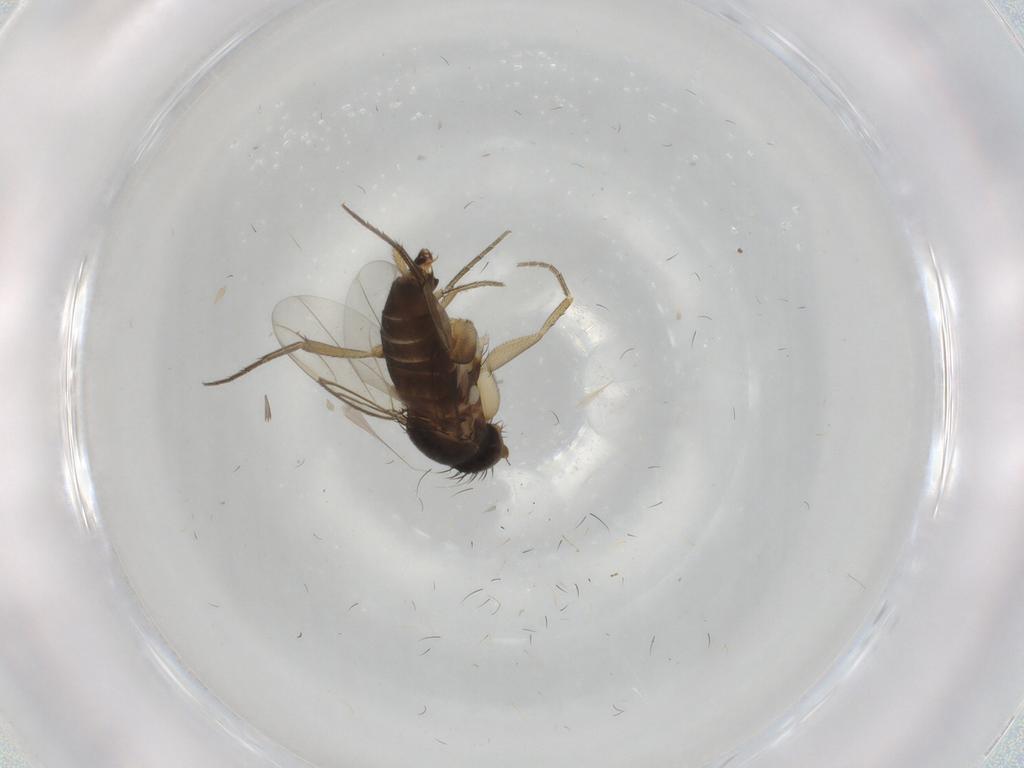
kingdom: Animalia
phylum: Arthropoda
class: Insecta
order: Diptera
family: Phoridae
